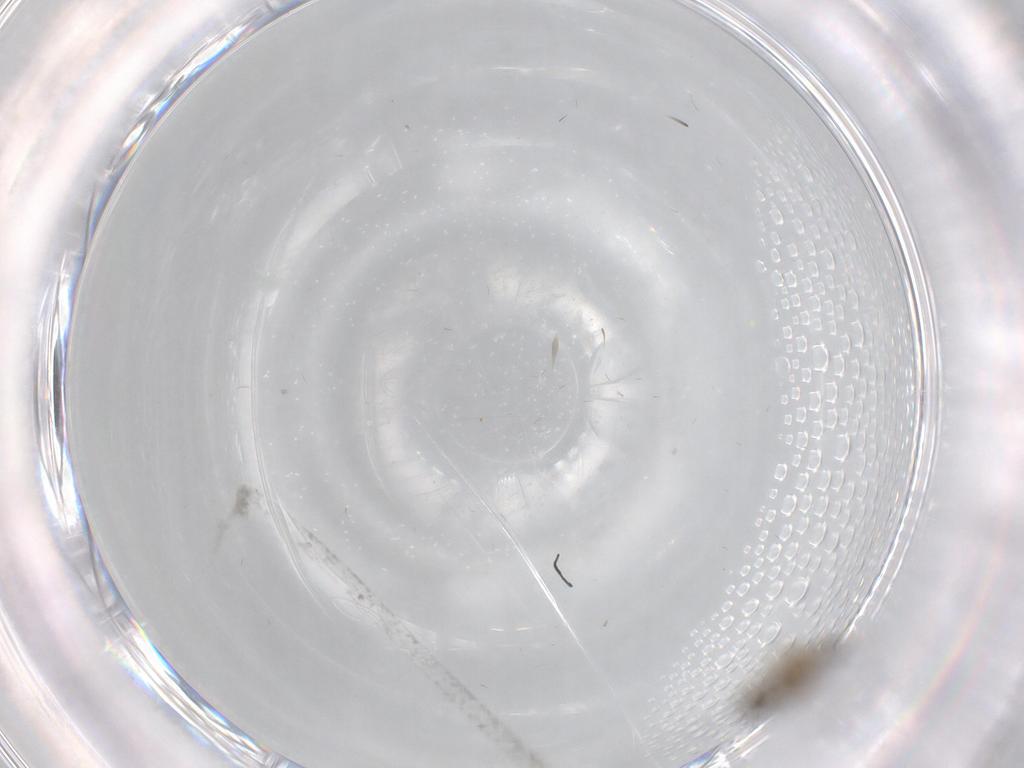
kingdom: Animalia
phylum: Arthropoda
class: Insecta
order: Diptera
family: Cecidomyiidae
